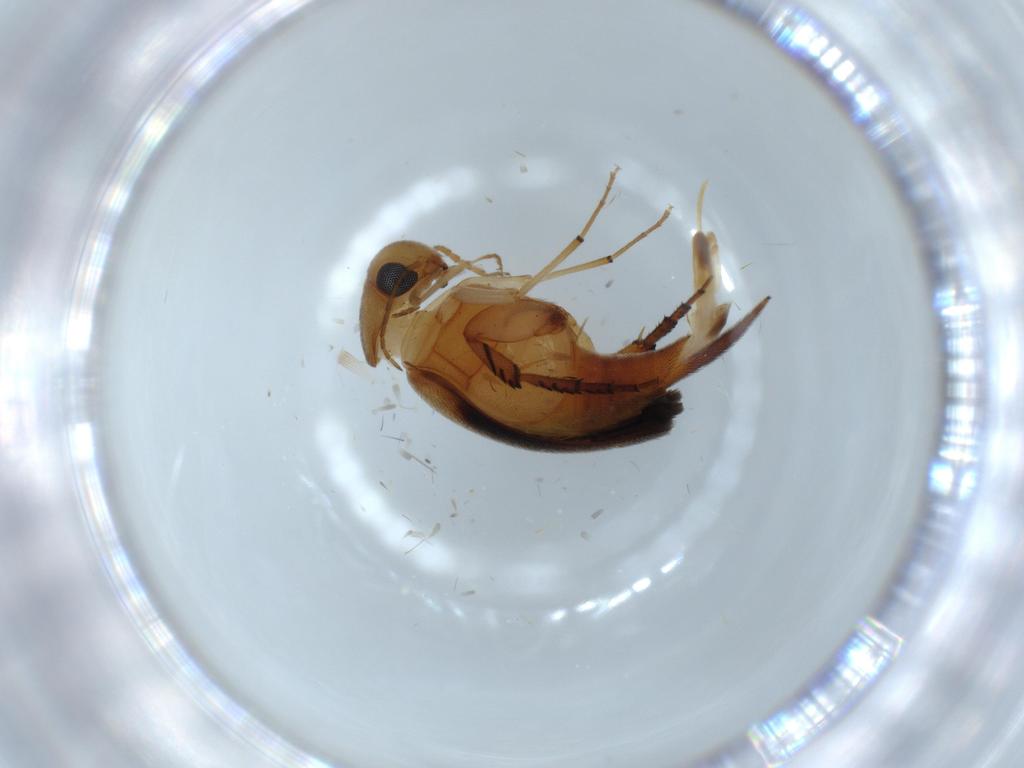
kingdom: Animalia
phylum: Arthropoda
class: Insecta
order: Coleoptera
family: Mordellidae
